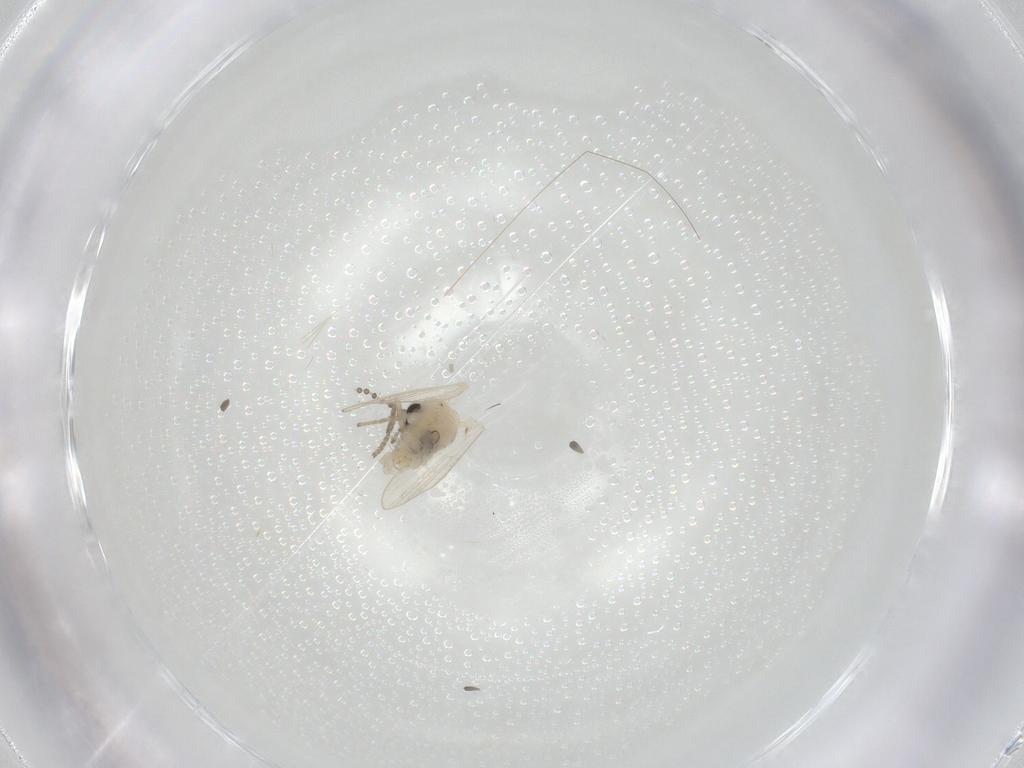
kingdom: Animalia
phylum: Arthropoda
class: Insecta
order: Diptera
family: Psychodidae
